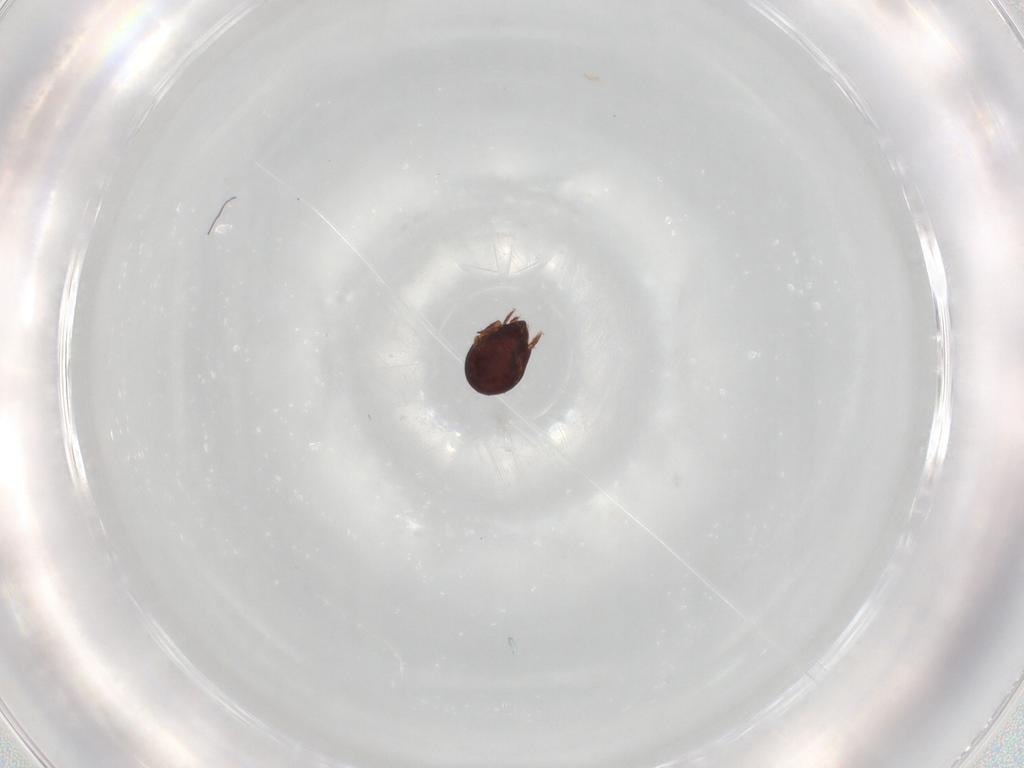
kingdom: Animalia
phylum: Arthropoda
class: Arachnida
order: Sarcoptiformes
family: Humerobatidae
